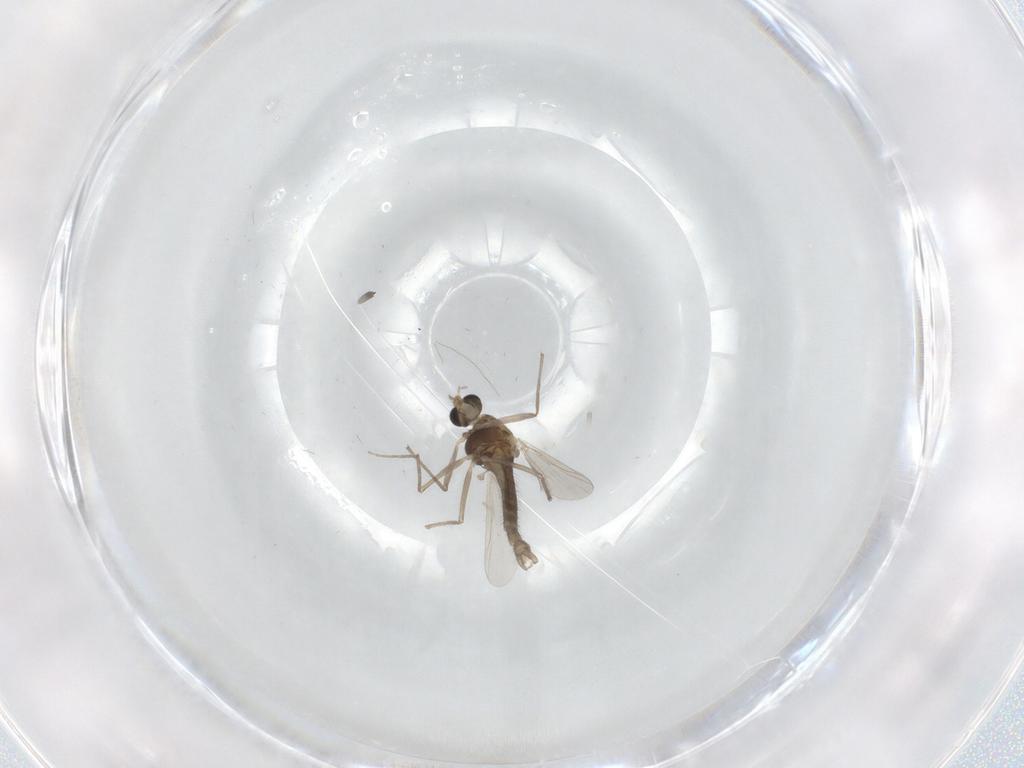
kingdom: Animalia
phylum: Arthropoda
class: Insecta
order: Diptera
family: Chironomidae
